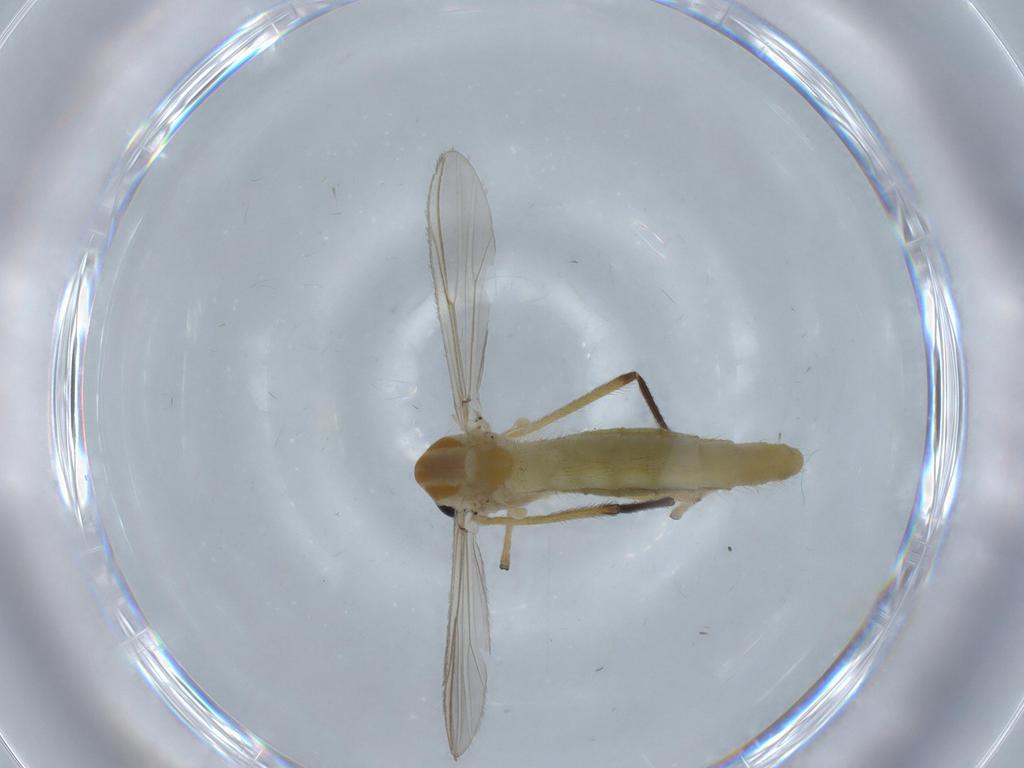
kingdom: Animalia
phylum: Arthropoda
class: Insecta
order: Diptera
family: Chironomidae
